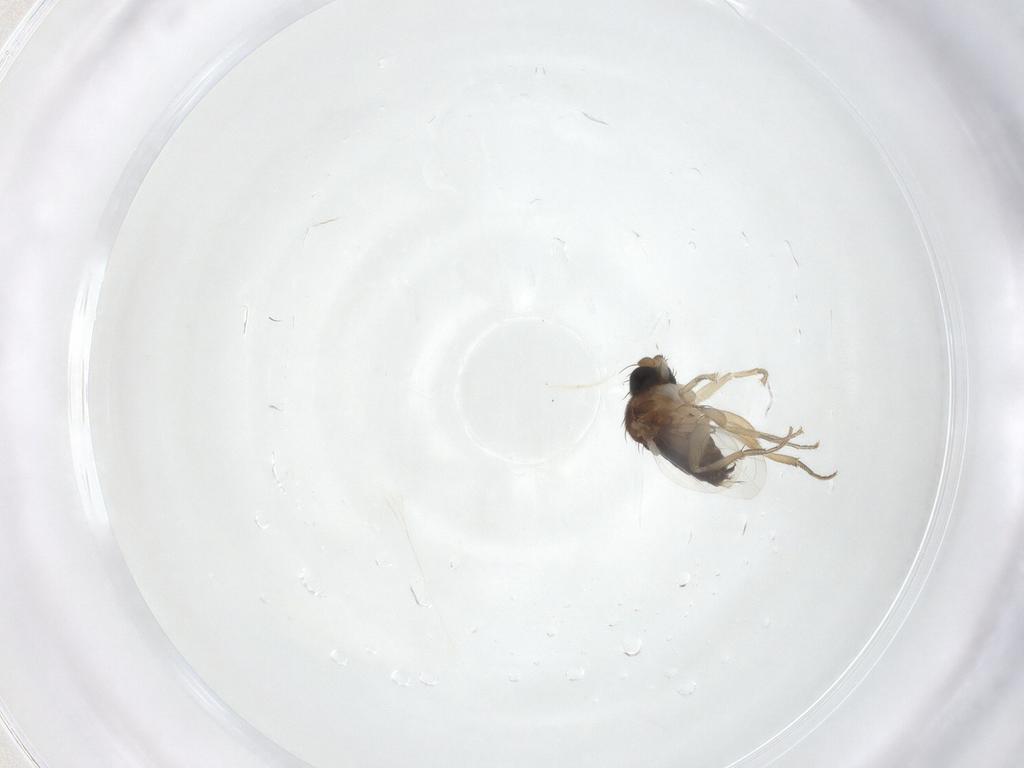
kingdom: Animalia
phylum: Arthropoda
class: Insecta
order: Diptera
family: Phoridae
